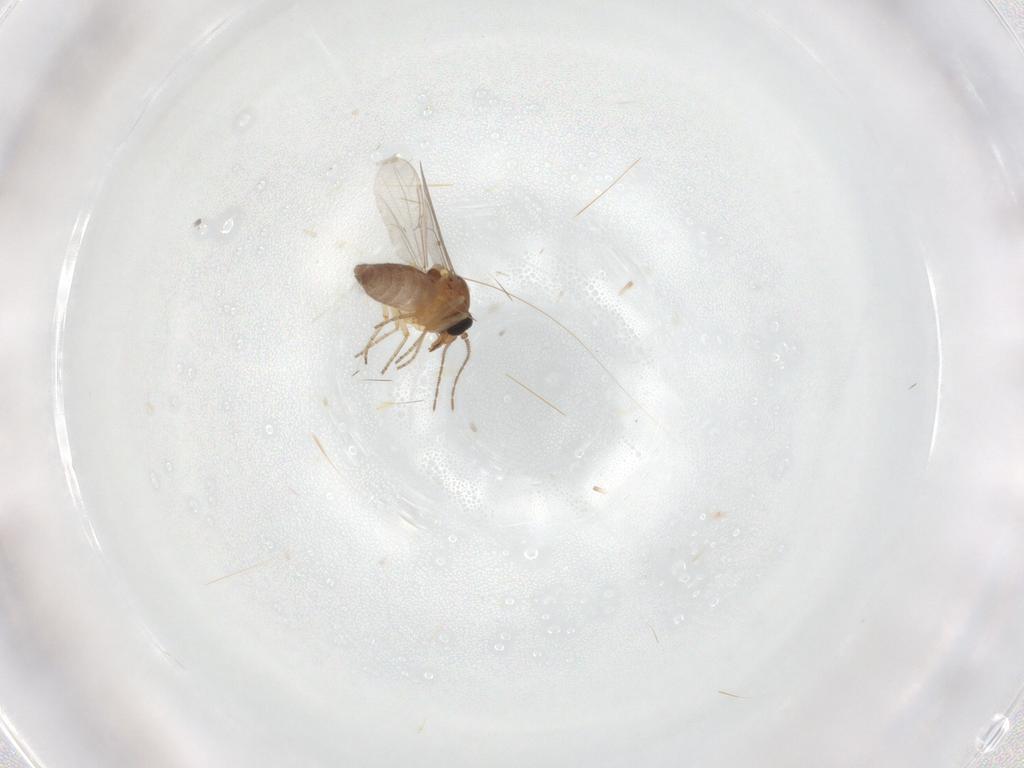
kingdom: Animalia
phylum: Arthropoda
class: Insecta
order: Diptera
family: Ceratopogonidae
